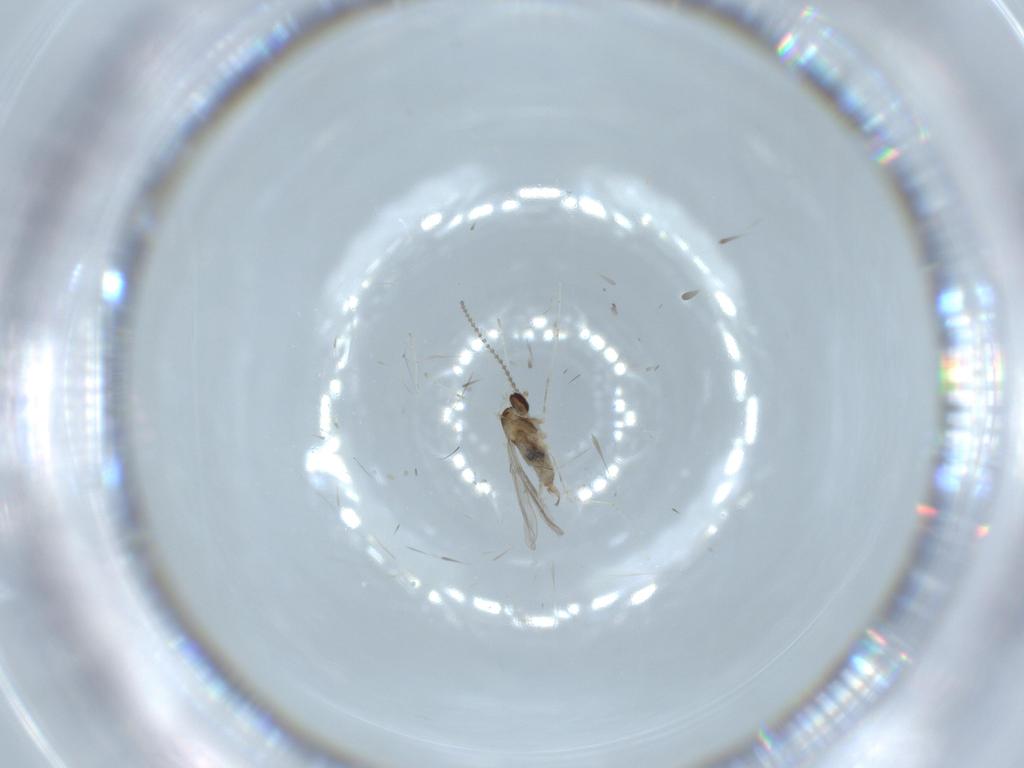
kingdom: Animalia
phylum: Arthropoda
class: Insecta
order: Diptera
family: Cecidomyiidae
